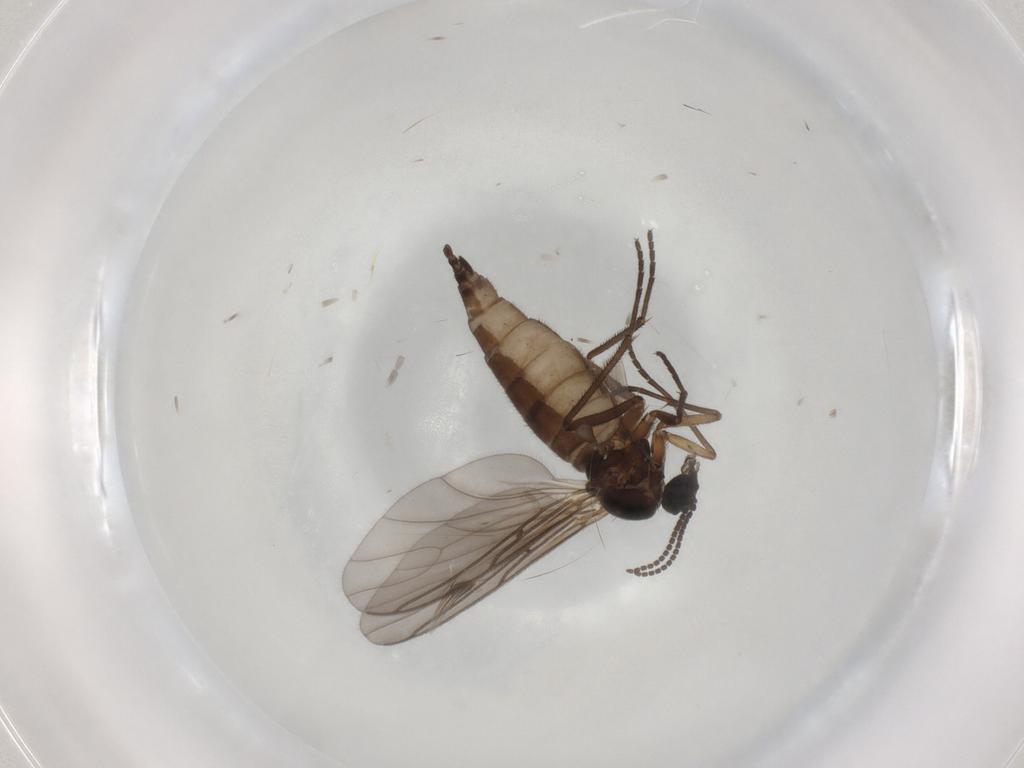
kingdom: Animalia
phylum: Arthropoda
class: Insecta
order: Diptera
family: Sciaridae
